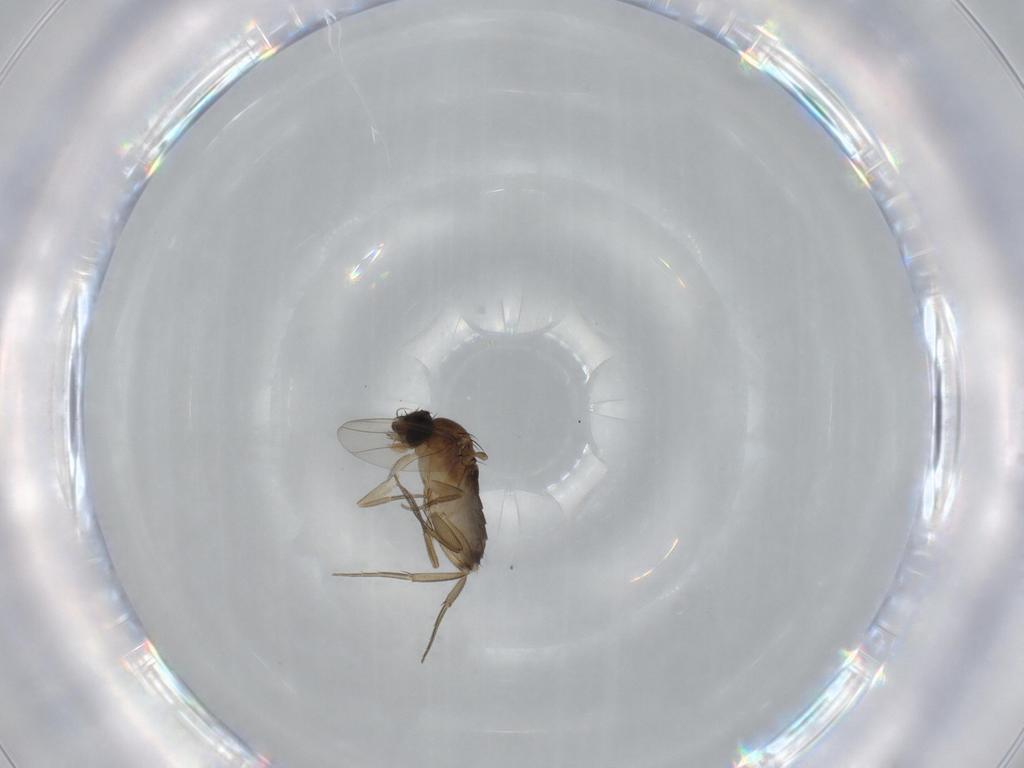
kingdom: Animalia
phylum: Arthropoda
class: Insecta
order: Diptera
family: Phoridae
